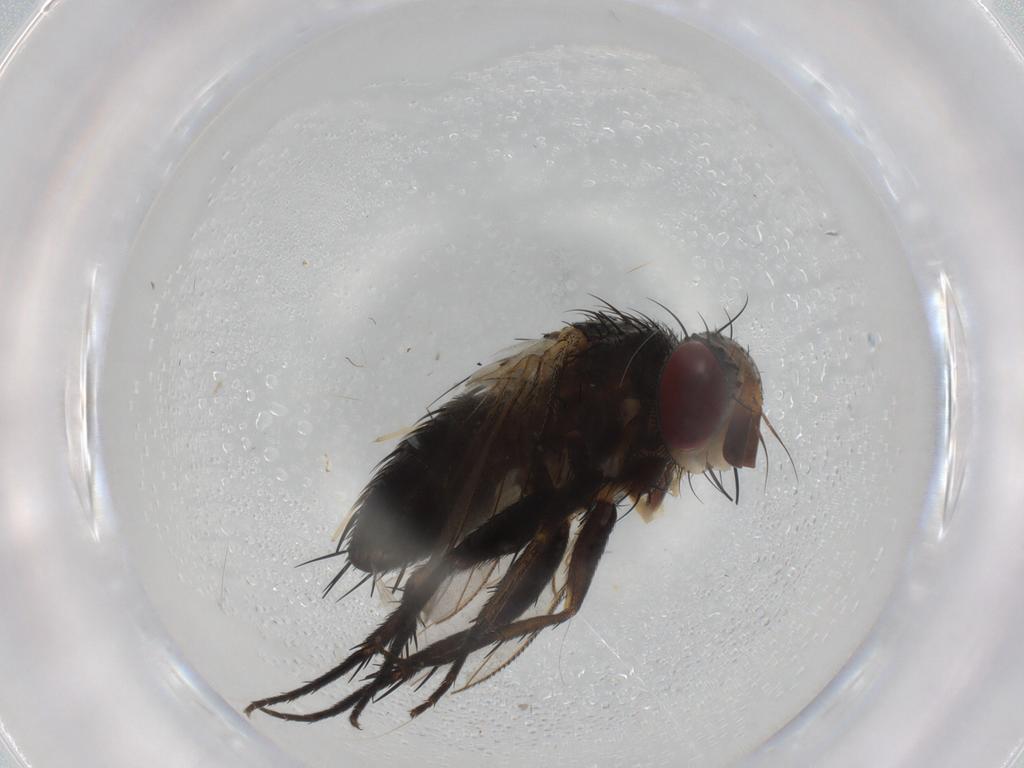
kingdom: Animalia
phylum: Arthropoda
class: Insecta
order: Diptera
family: Tachinidae
